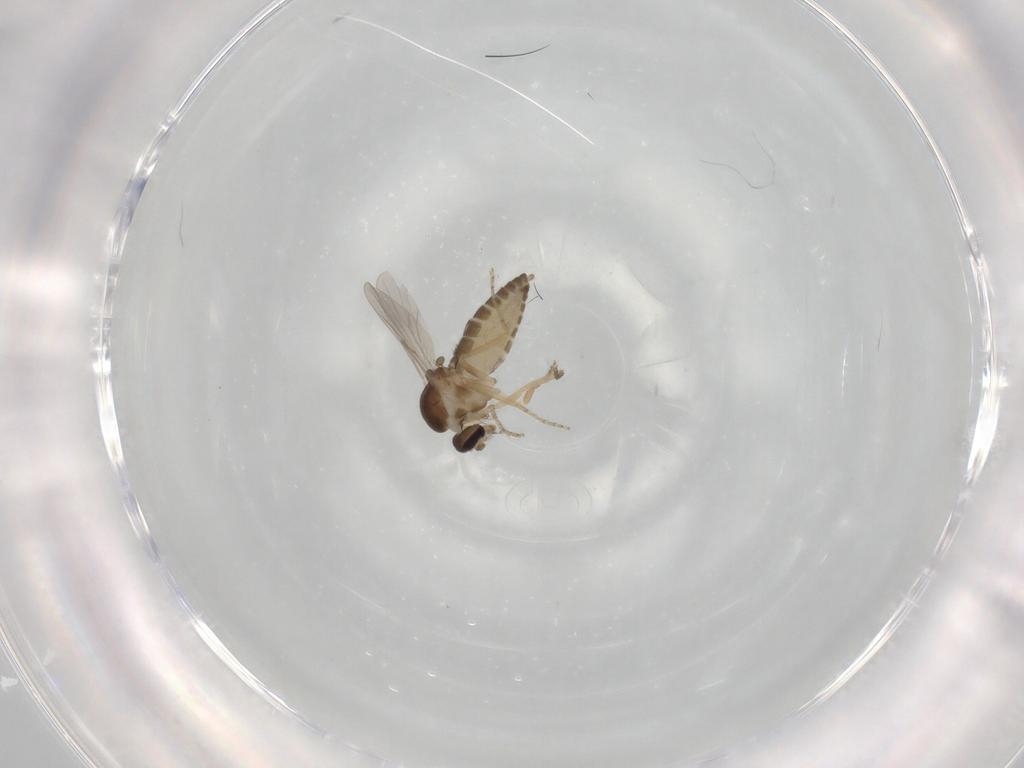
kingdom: Animalia
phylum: Arthropoda
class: Insecta
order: Diptera
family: Ceratopogonidae
